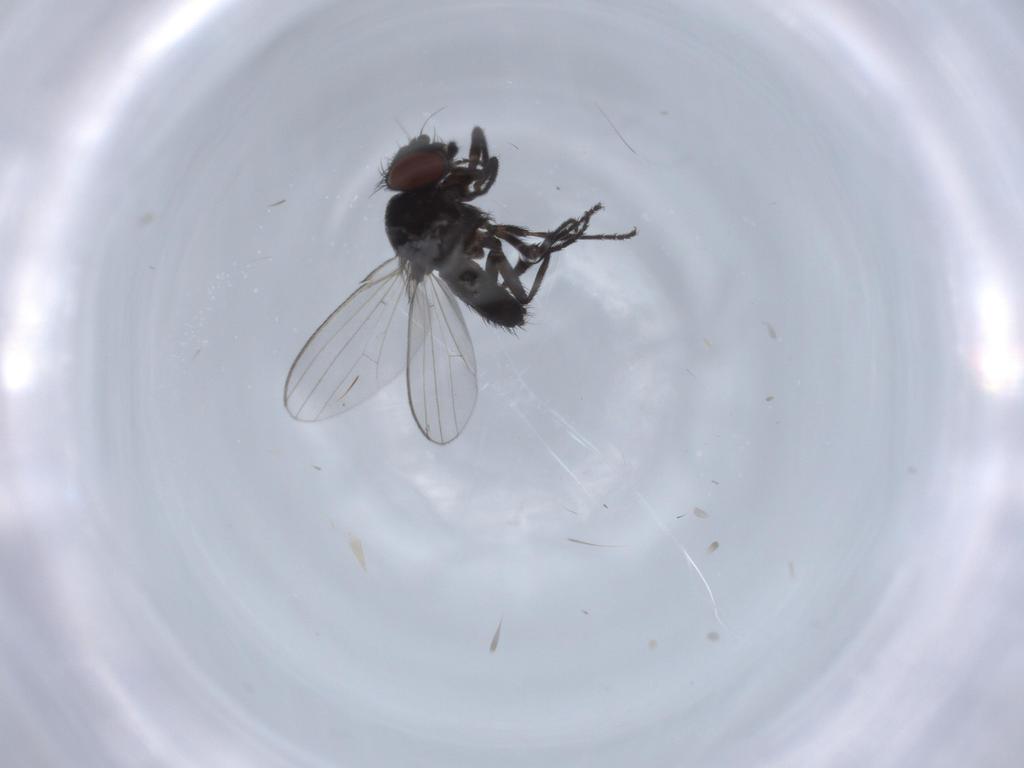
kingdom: Animalia
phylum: Arthropoda
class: Insecta
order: Diptera
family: Milichiidae
